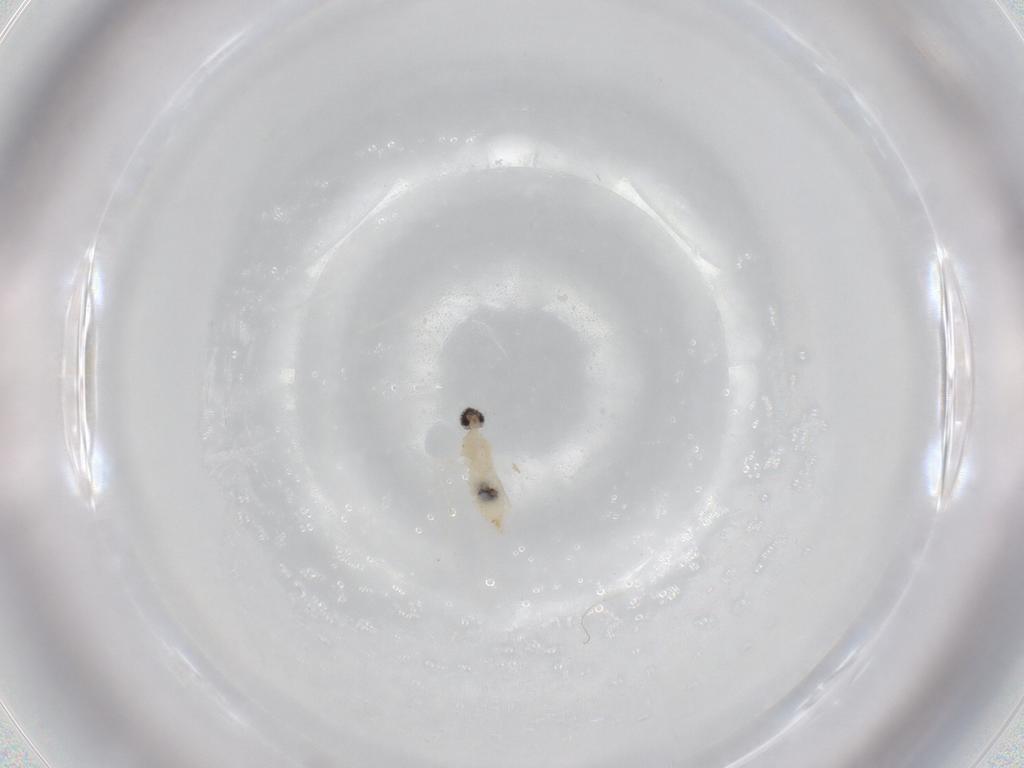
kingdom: Animalia
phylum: Arthropoda
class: Insecta
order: Diptera
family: Cecidomyiidae
